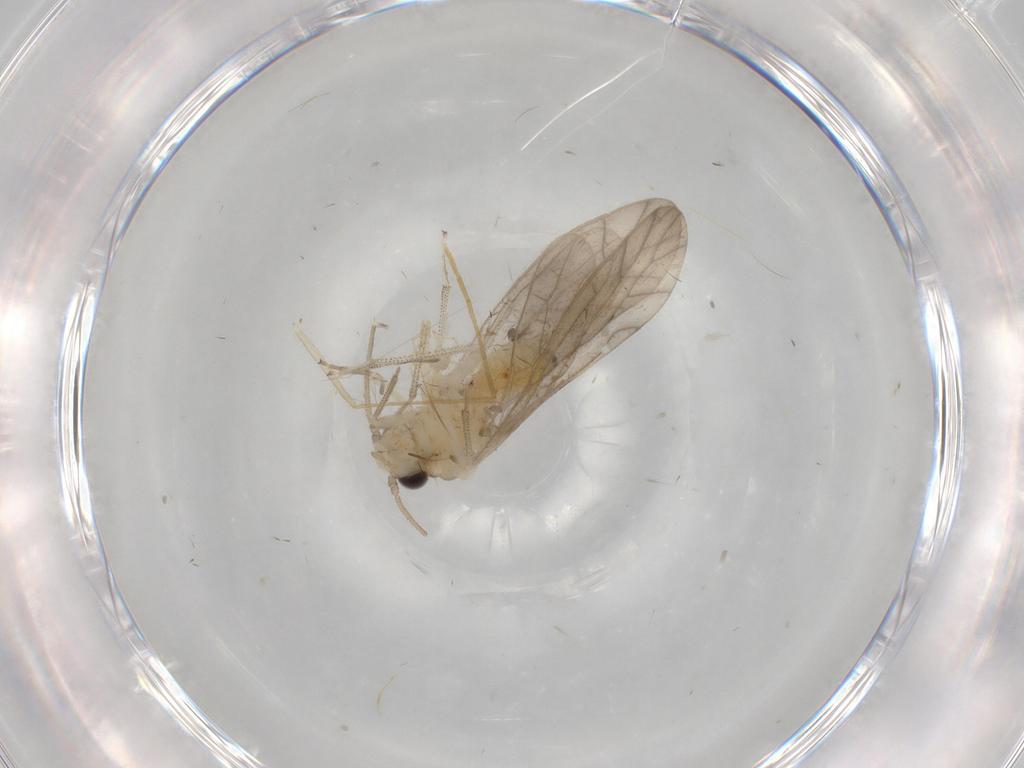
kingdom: Animalia
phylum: Arthropoda
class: Insecta
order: Psocodea
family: Caeciliusidae
